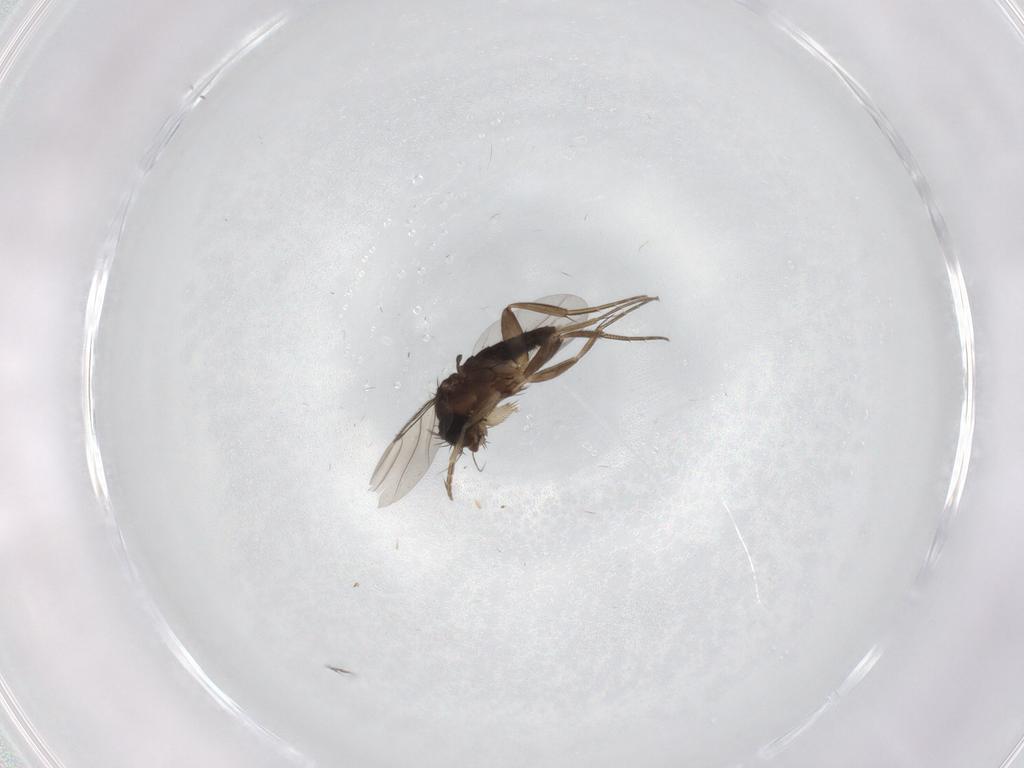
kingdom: Animalia
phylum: Arthropoda
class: Insecta
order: Diptera
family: Phoridae
